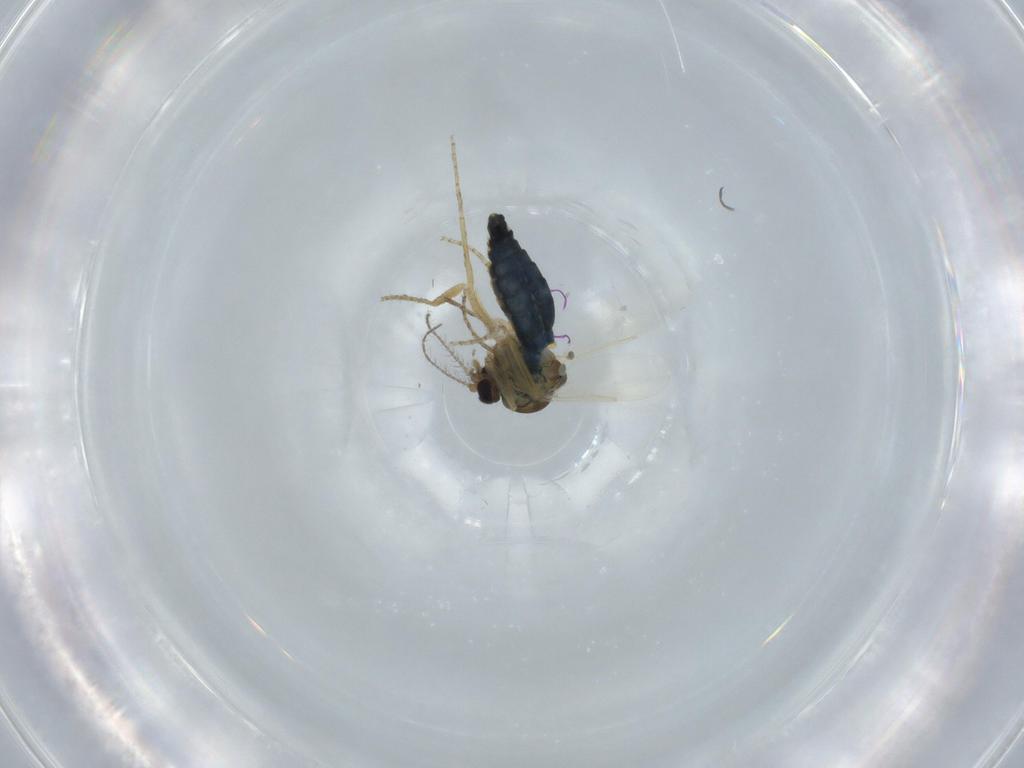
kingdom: Animalia
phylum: Arthropoda
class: Insecta
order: Diptera
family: Ceratopogonidae
